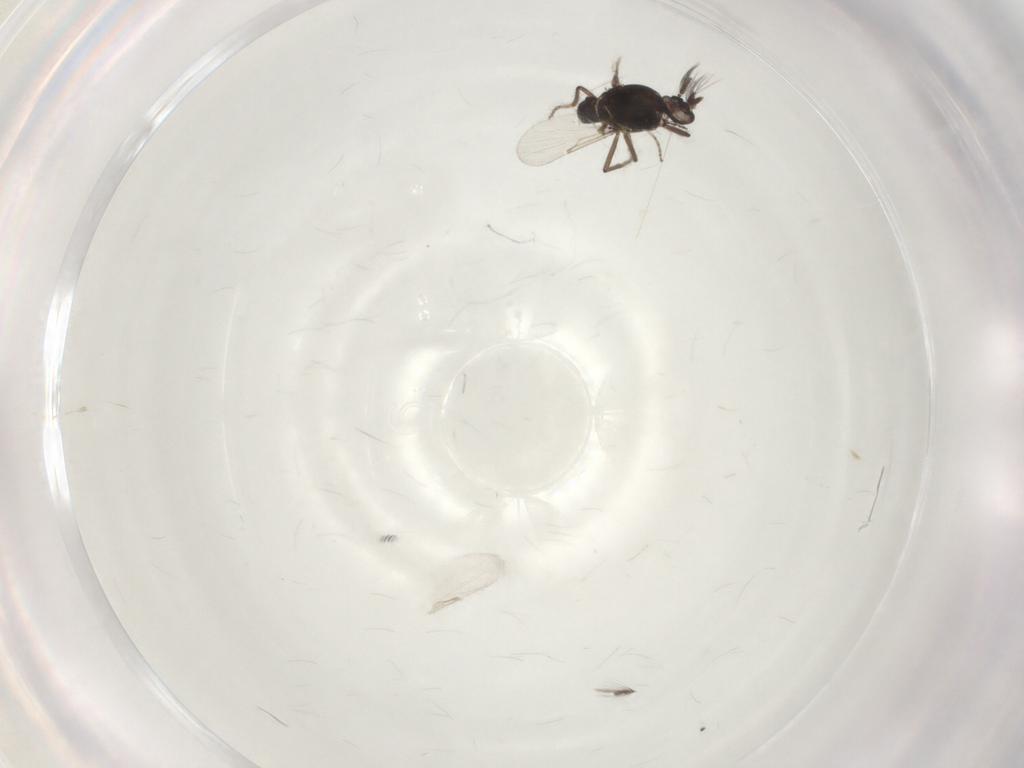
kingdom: Animalia
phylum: Arthropoda
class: Insecta
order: Diptera
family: Ceratopogonidae
